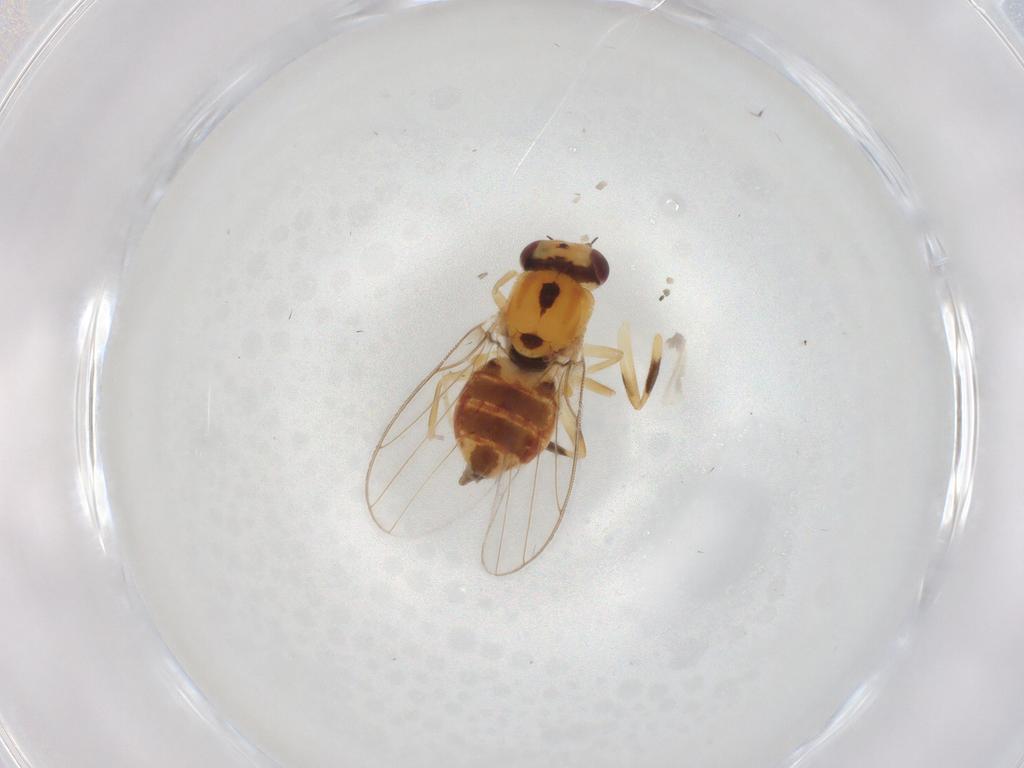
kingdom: Animalia
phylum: Arthropoda
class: Insecta
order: Diptera
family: Chloropidae
